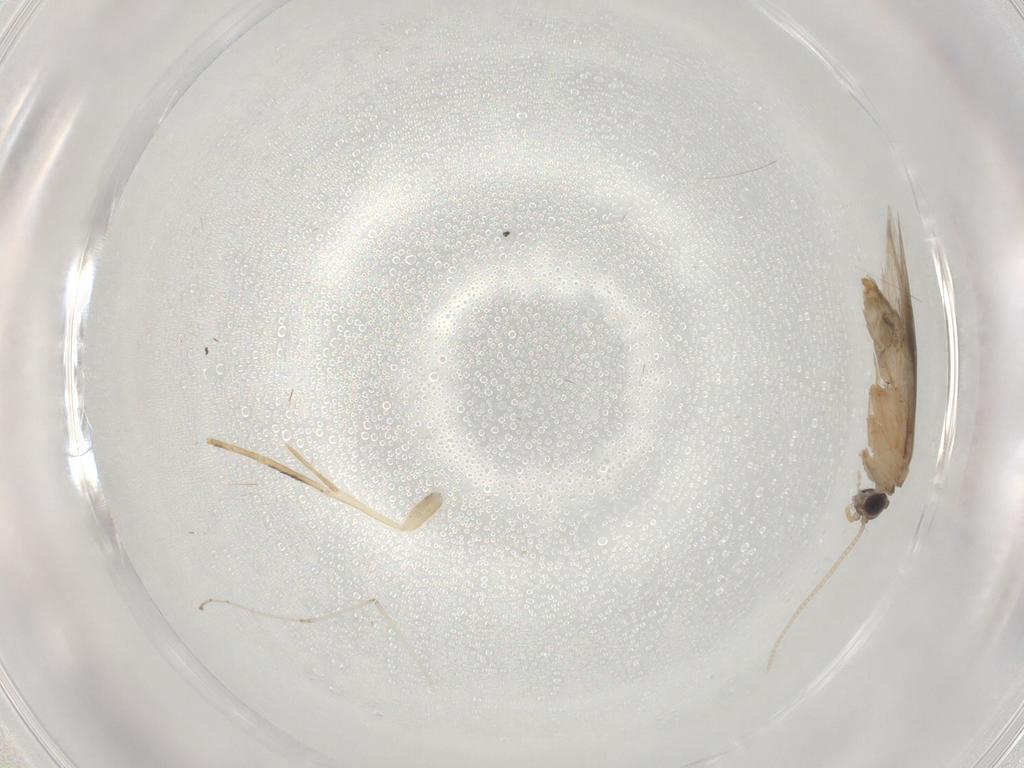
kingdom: Animalia
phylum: Arthropoda
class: Insecta
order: Trichoptera
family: Hydroptilidae
